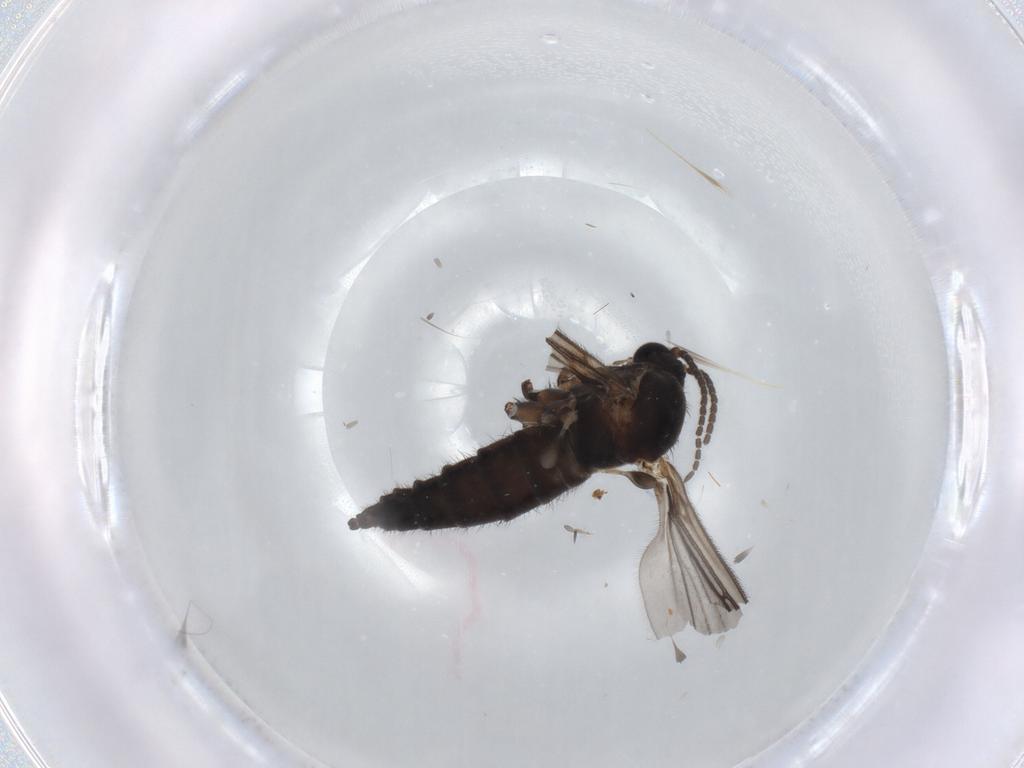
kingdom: Animalia
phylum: Arthropoda
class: Insecta
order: Diptera
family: Sciaridae
